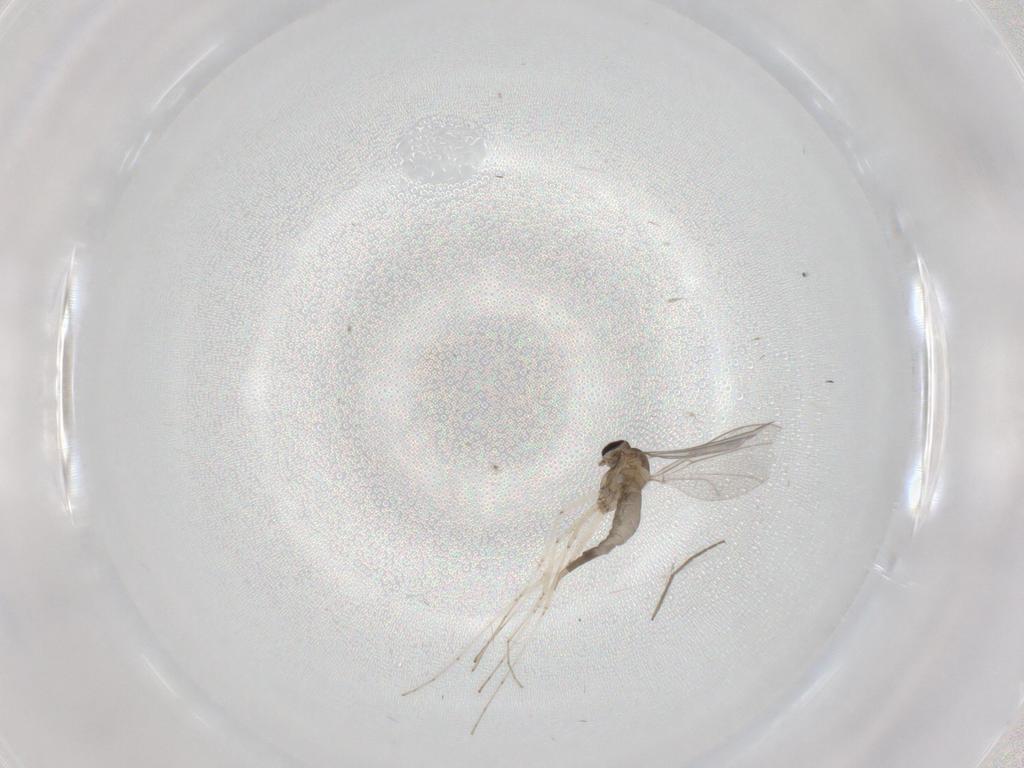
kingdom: Animalia
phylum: Arthropoda
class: Insecta
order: Diptera
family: Cecidomyiidae
